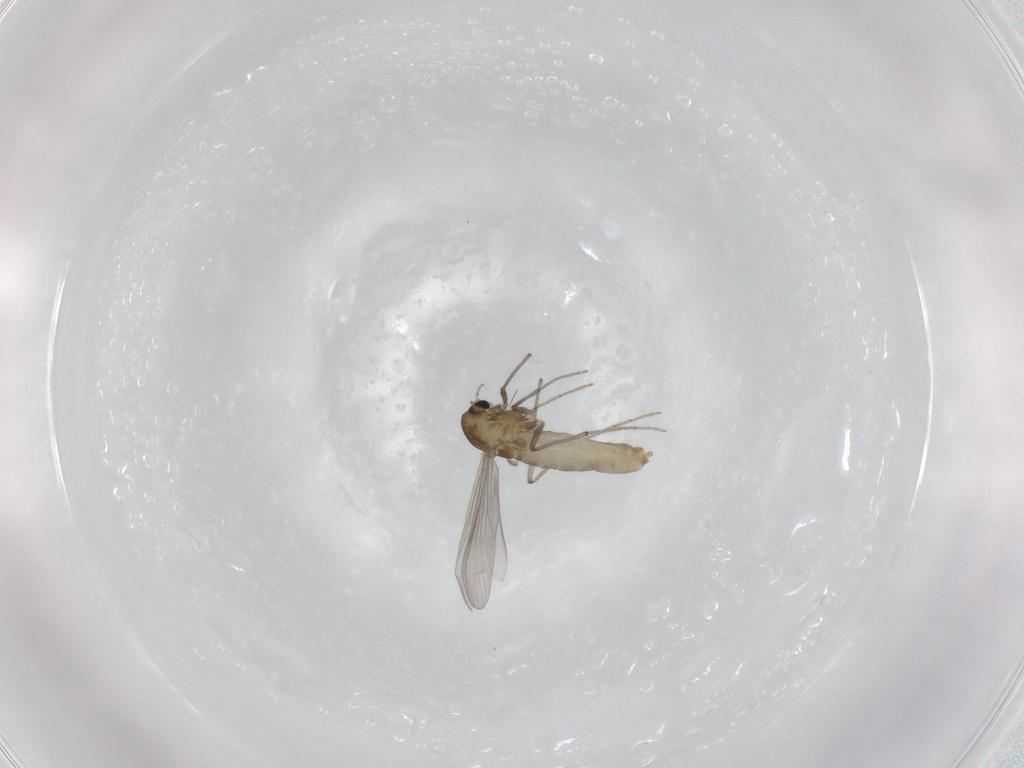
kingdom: Animalia
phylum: Arthropoda
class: Insecta
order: Diptera
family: Chironomidae
